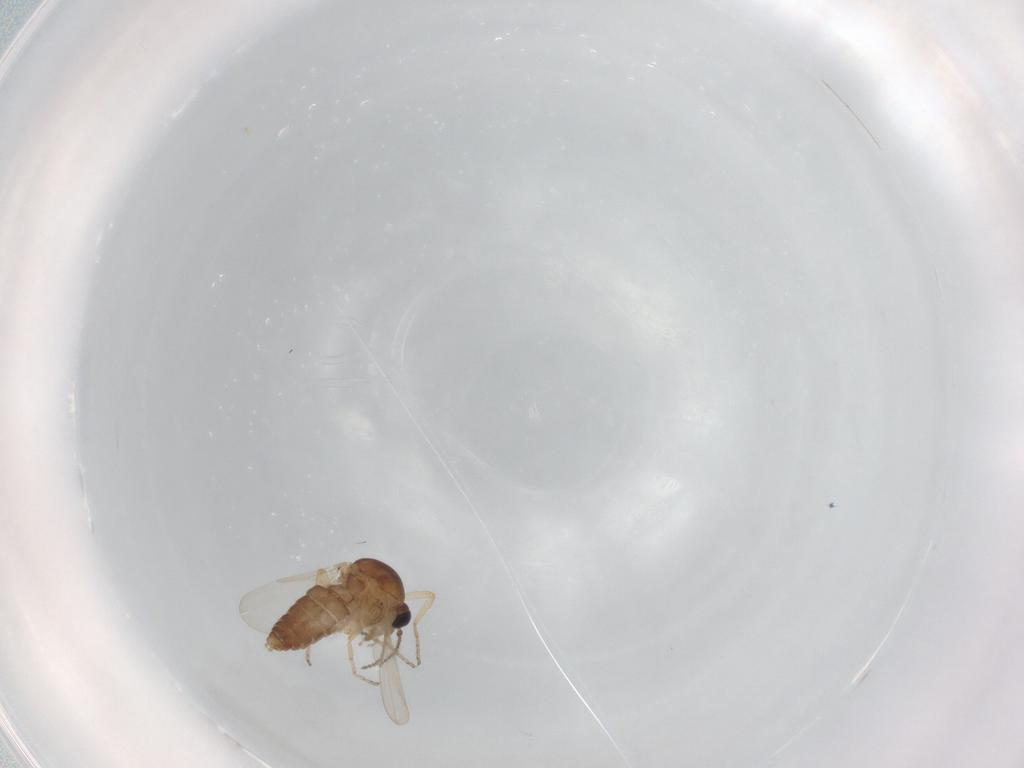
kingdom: Animalia
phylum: Arthropoda
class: Insecta
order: Diptera
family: Ceratopogonidae
